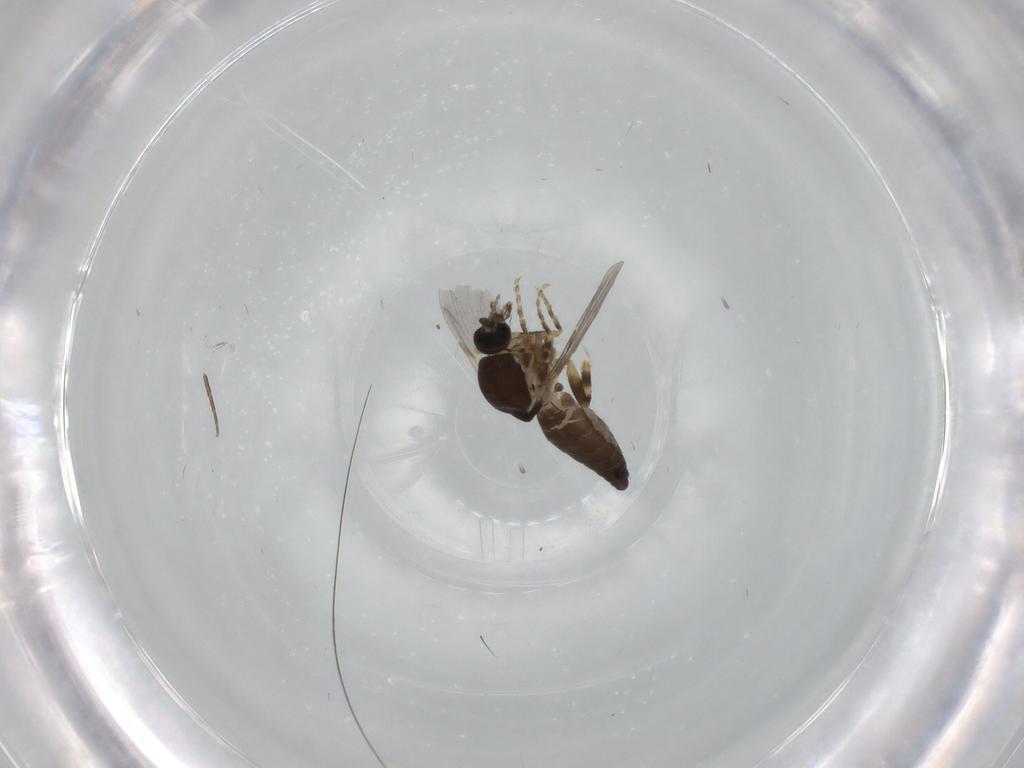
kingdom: Animalia
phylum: Arthropoda
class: Insecta
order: Diptera
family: Ceratopogonidae
